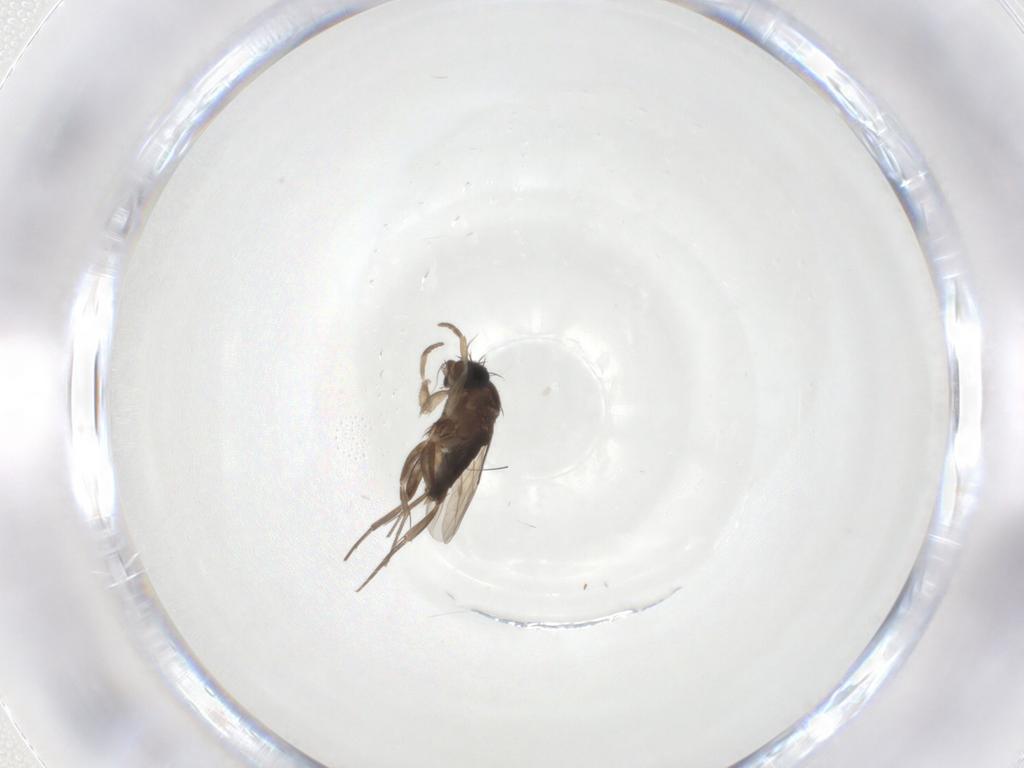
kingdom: Animalia
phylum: Arthropoda
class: Insecta
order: Diptera
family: Phoridae
